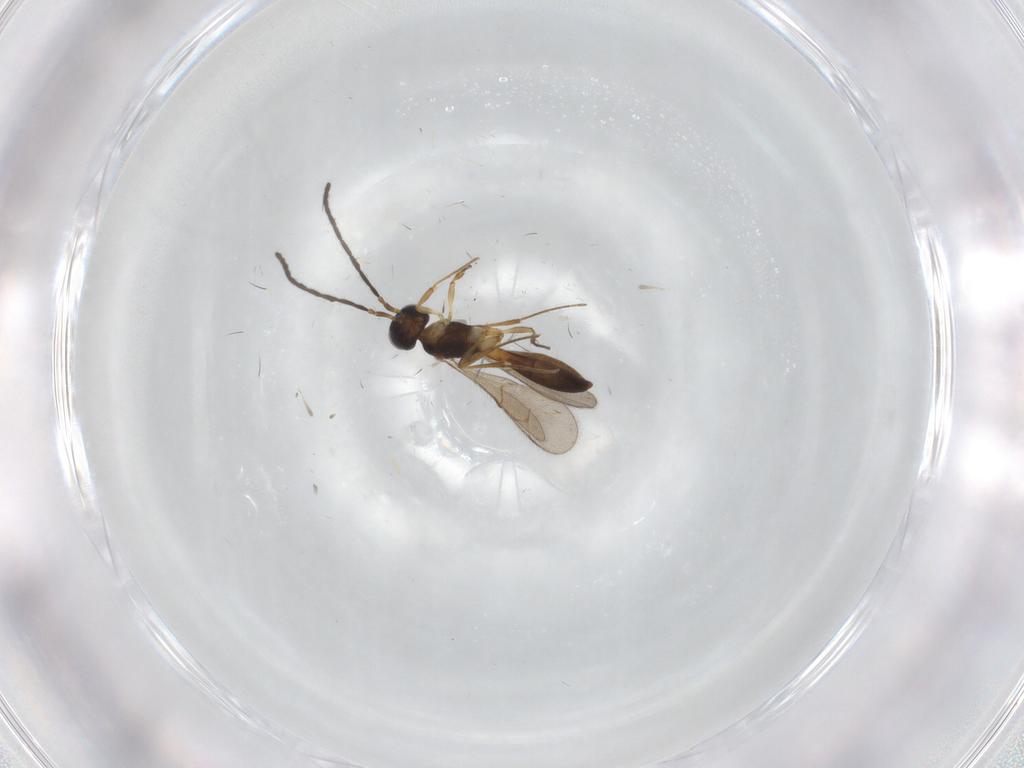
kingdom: Animalia
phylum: Arthropoda
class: Insecta
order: Hymenoptera
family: Scelionidae
